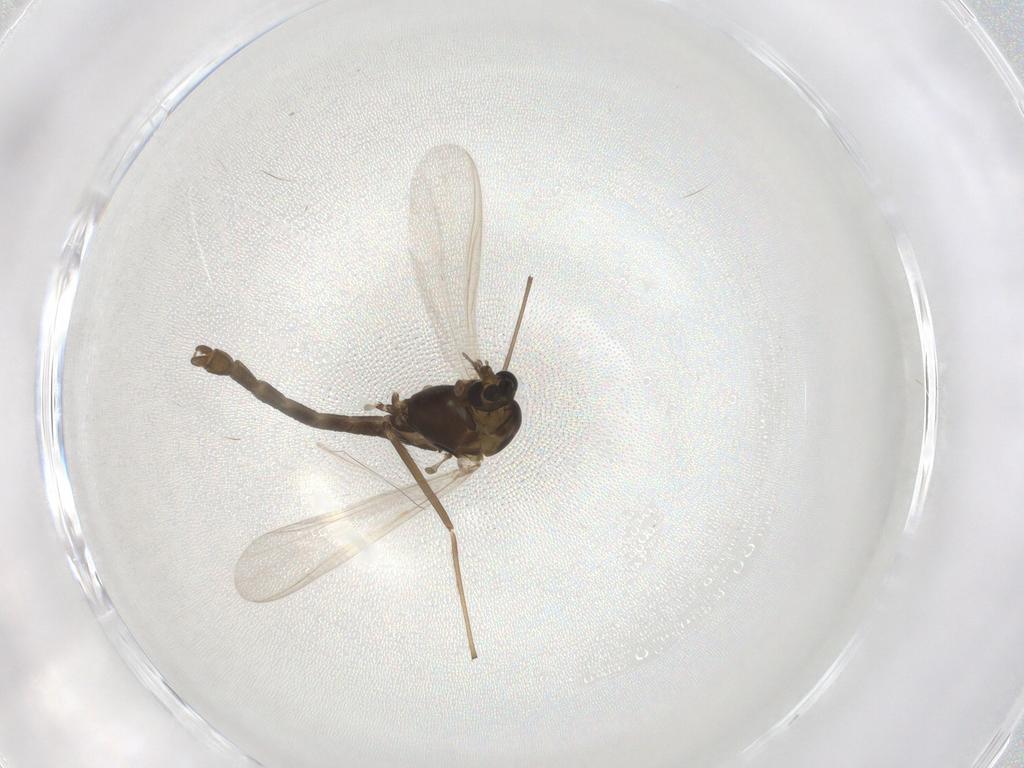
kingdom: Animalia
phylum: Arthropoda
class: Insecta
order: Diptera
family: Chironomidae
